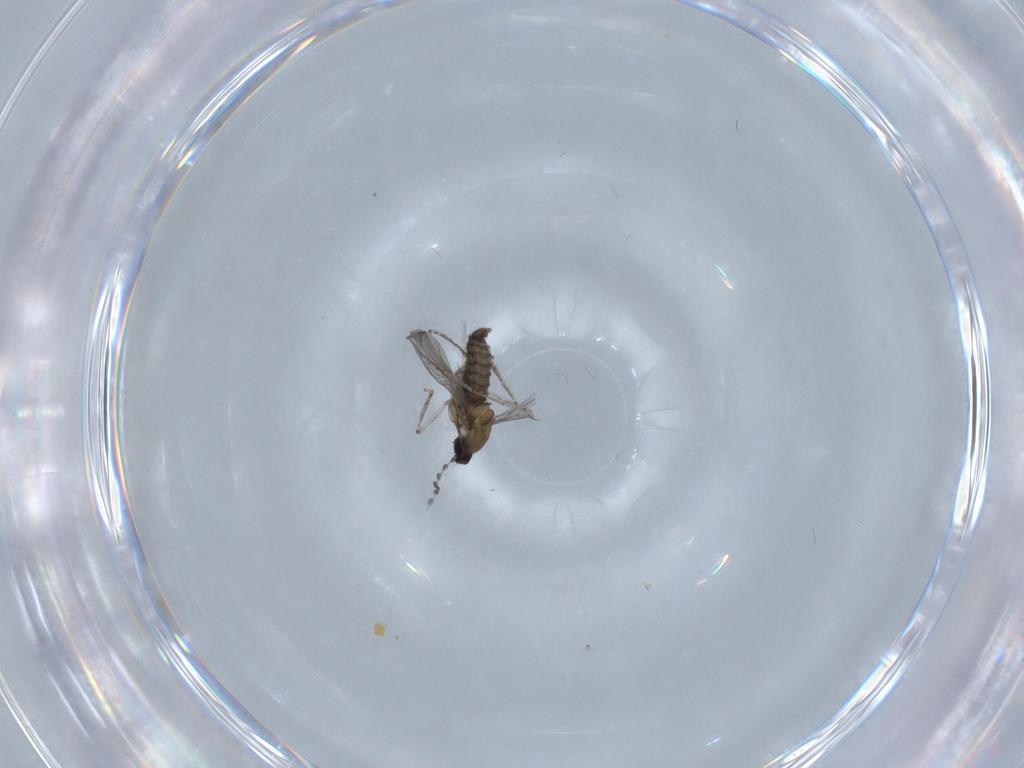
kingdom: Animalia
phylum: Arthropoda
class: Insecta
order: Diptera
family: Cecidomyiidae
